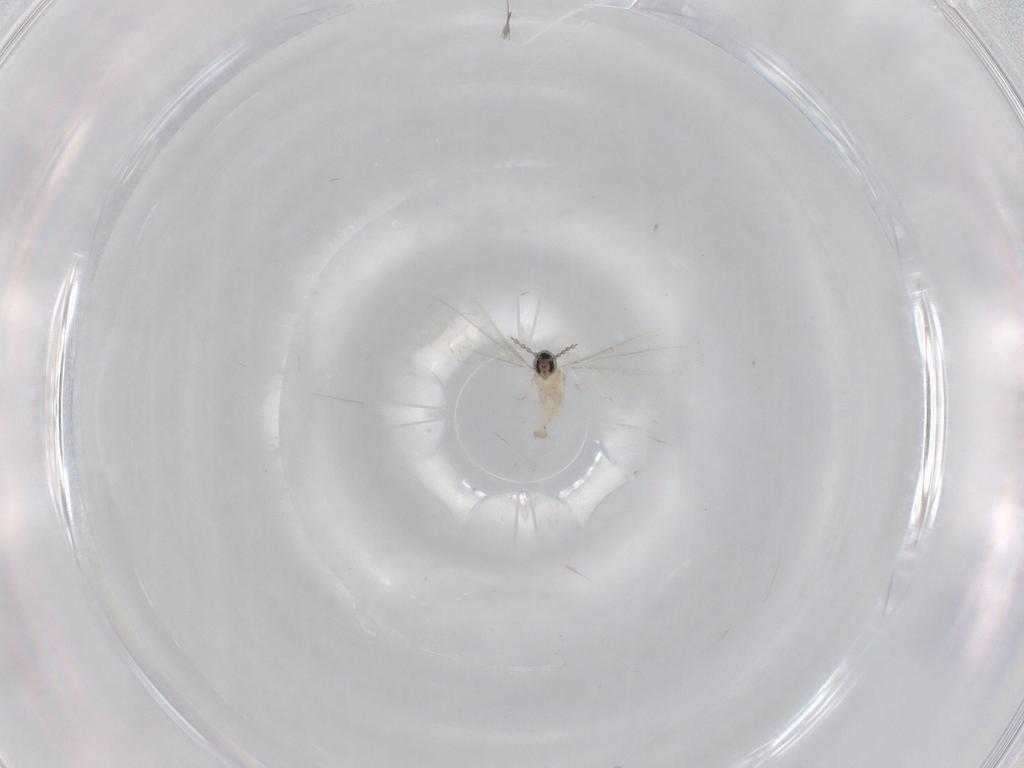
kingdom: Animalia
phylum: Arthropoda
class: Insecta
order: Diptera
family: Cecidomyiidae
